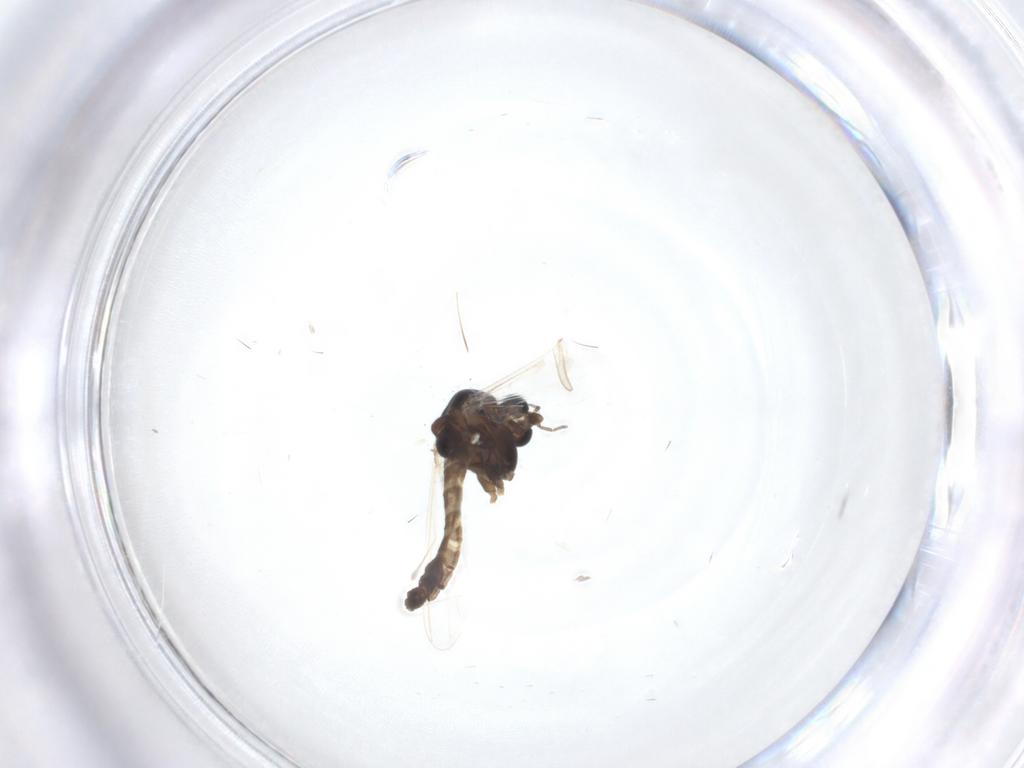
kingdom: Animalia
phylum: Arthropoda
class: Insecta
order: Diptera
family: Chironomidae
